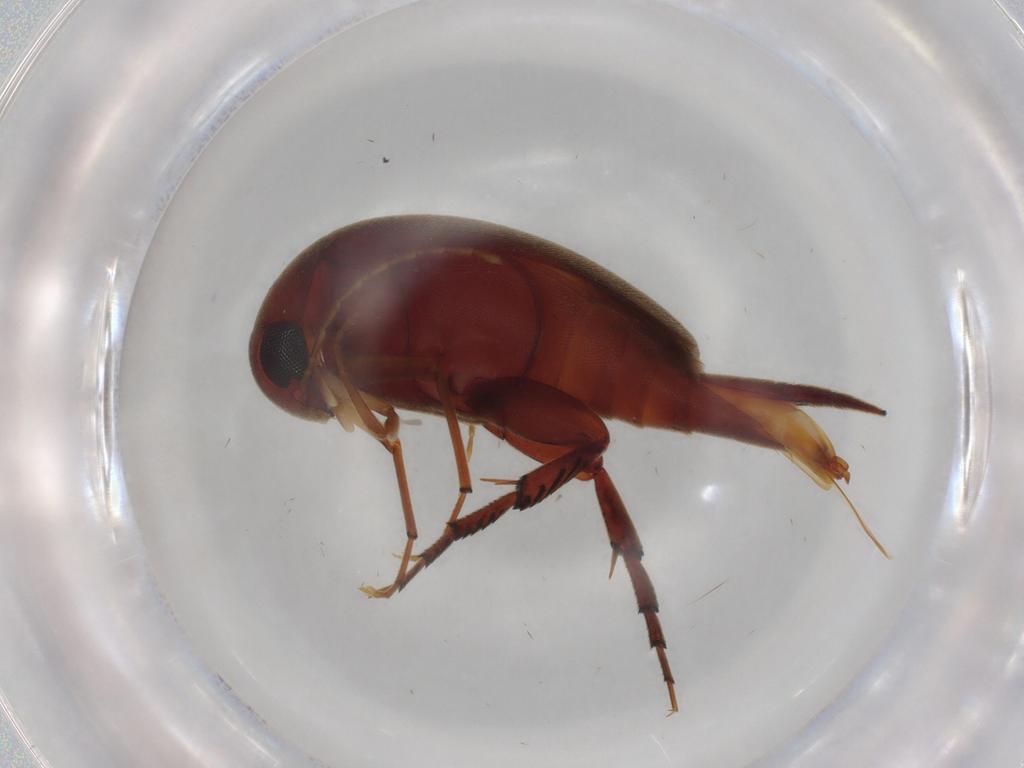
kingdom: Animalia
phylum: Arthropoda
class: Insecta
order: Coleoptera
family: Mordellidae
